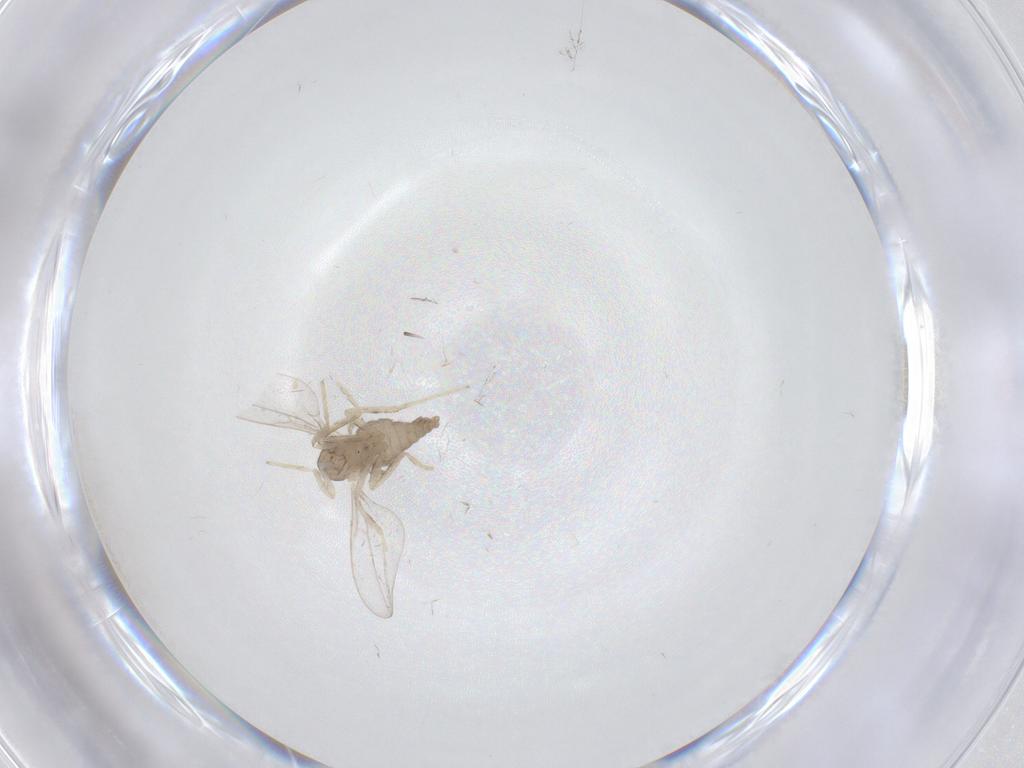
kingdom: Animalia
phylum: Arthropoda
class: Insecta
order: Diptera
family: Cecidomyiidae
